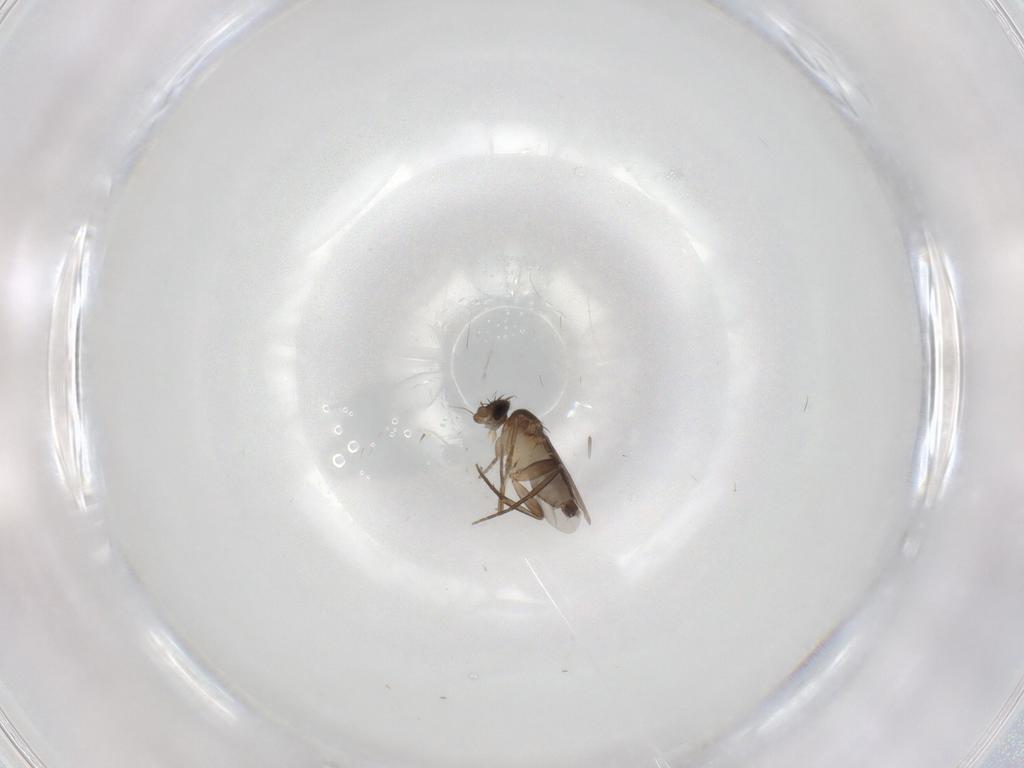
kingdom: Animalia
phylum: Arthropoda
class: Insecta
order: Diptera
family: Phoridae
